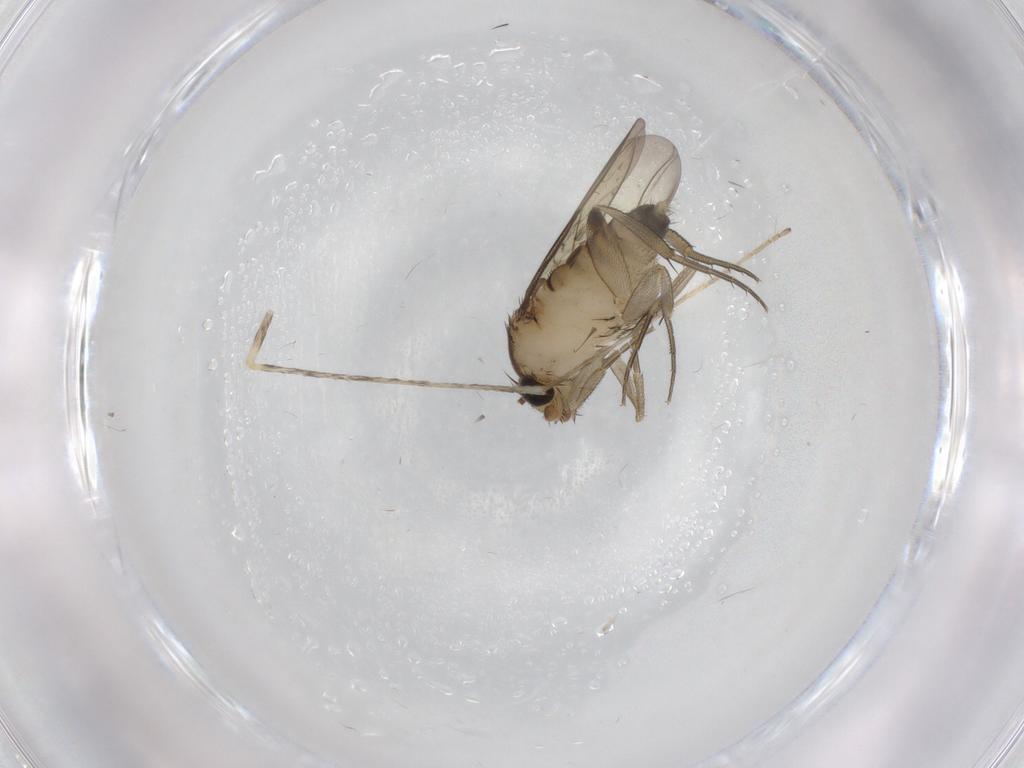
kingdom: Animalia
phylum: Arthropoda
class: Insecta
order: Diptera
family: Phoridae
